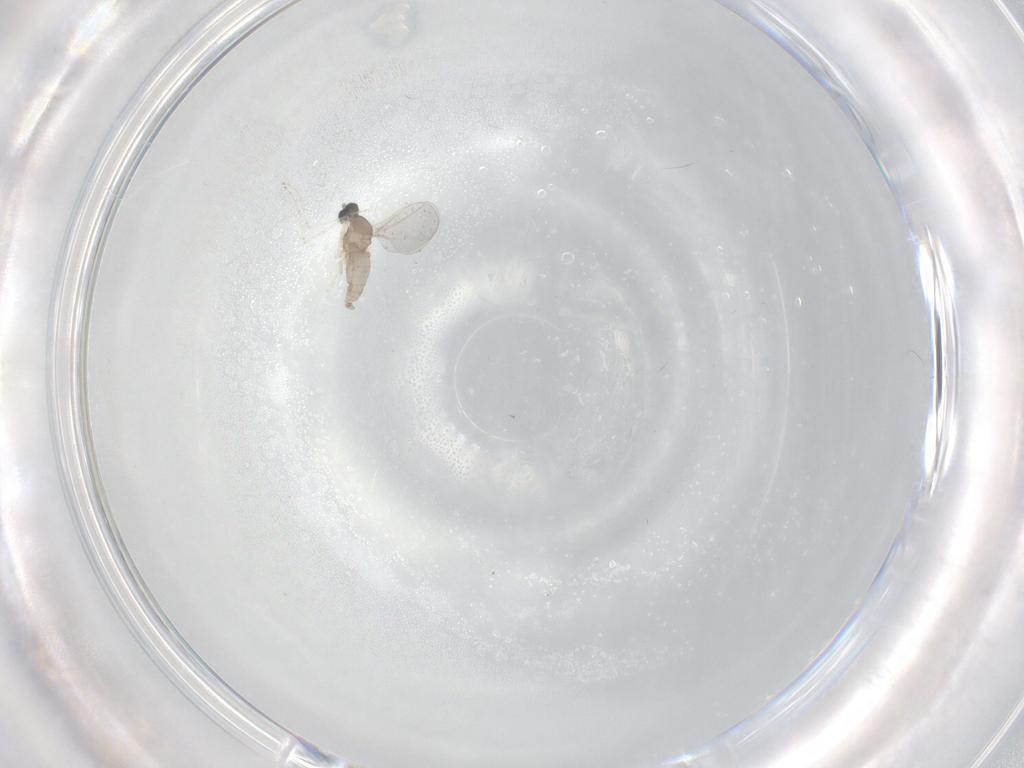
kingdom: Animalia
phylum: Arthropoda
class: Insecta
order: Diptera
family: Cecidomyiidae
